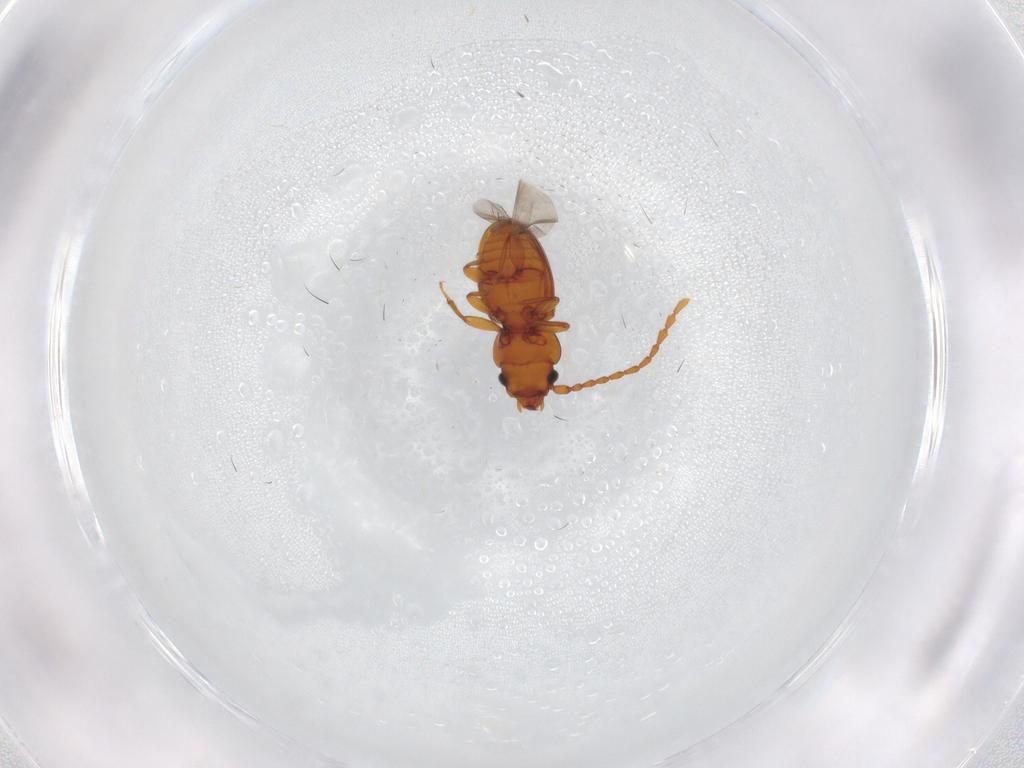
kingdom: Animalia
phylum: Arthropoda
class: Insecta
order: Coleoptera
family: Laemophloeidae
